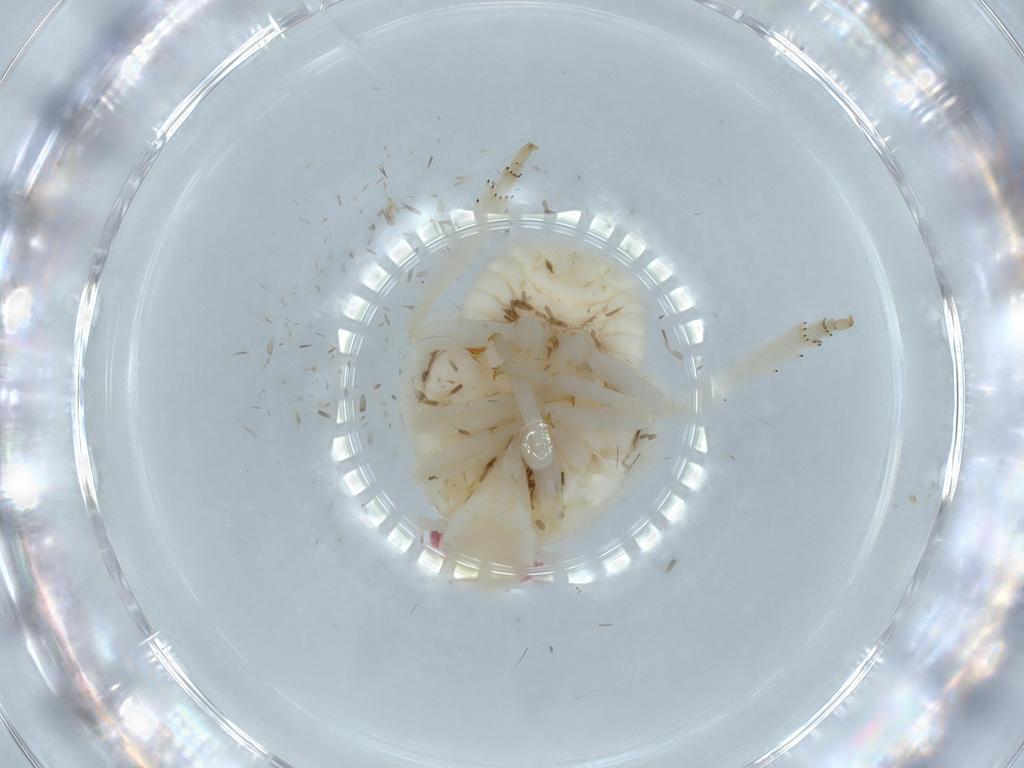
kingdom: Animalia
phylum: Arthropoda
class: Insecta
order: Hemiptera
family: Flatidae
